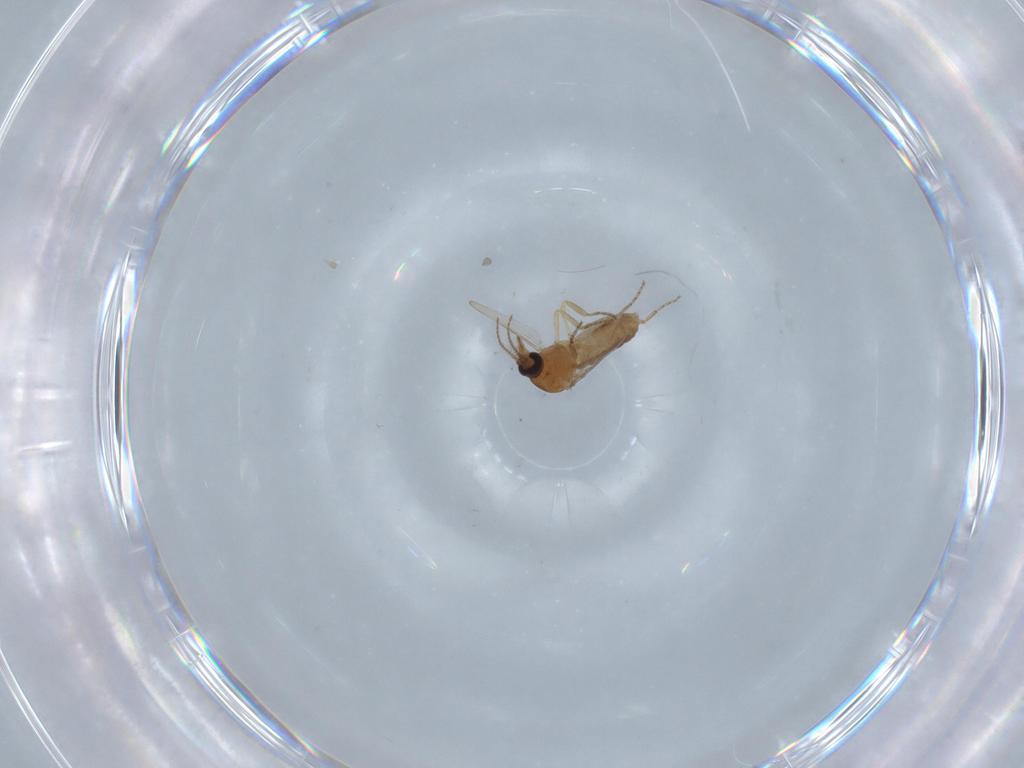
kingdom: Animalia
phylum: Arthropoda
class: Insecta
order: Diptera
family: Ceratopogonidae
